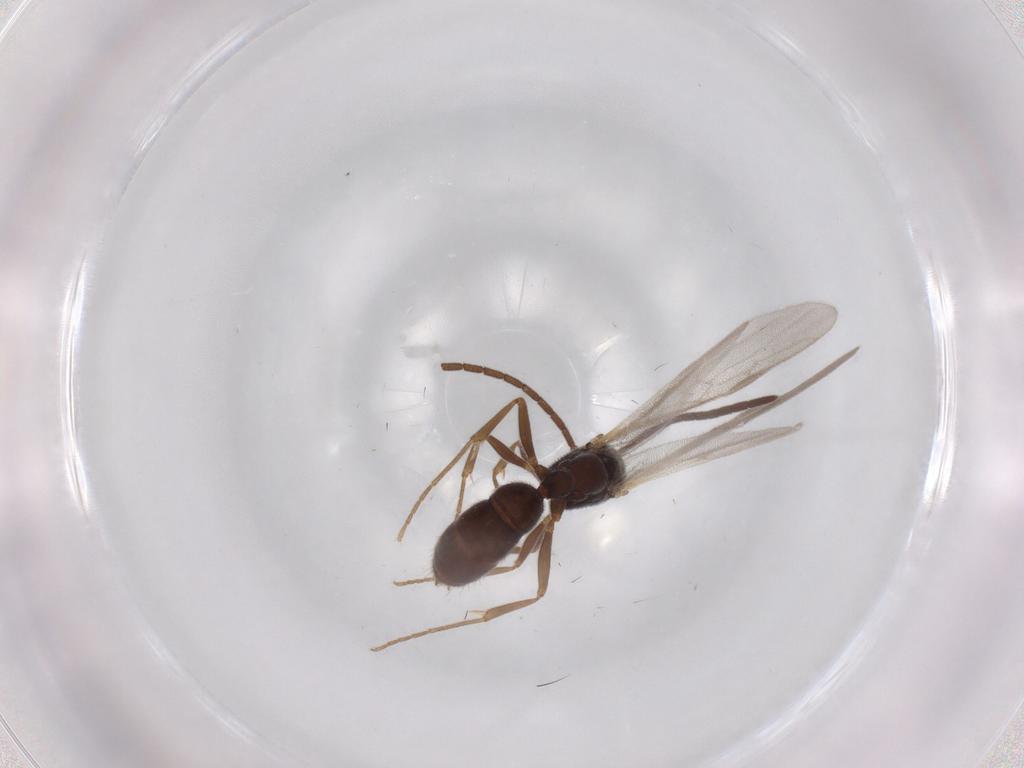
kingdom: Animalia
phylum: Arthropoda
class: Insecta
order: Hymenoptera
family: Formicidae
